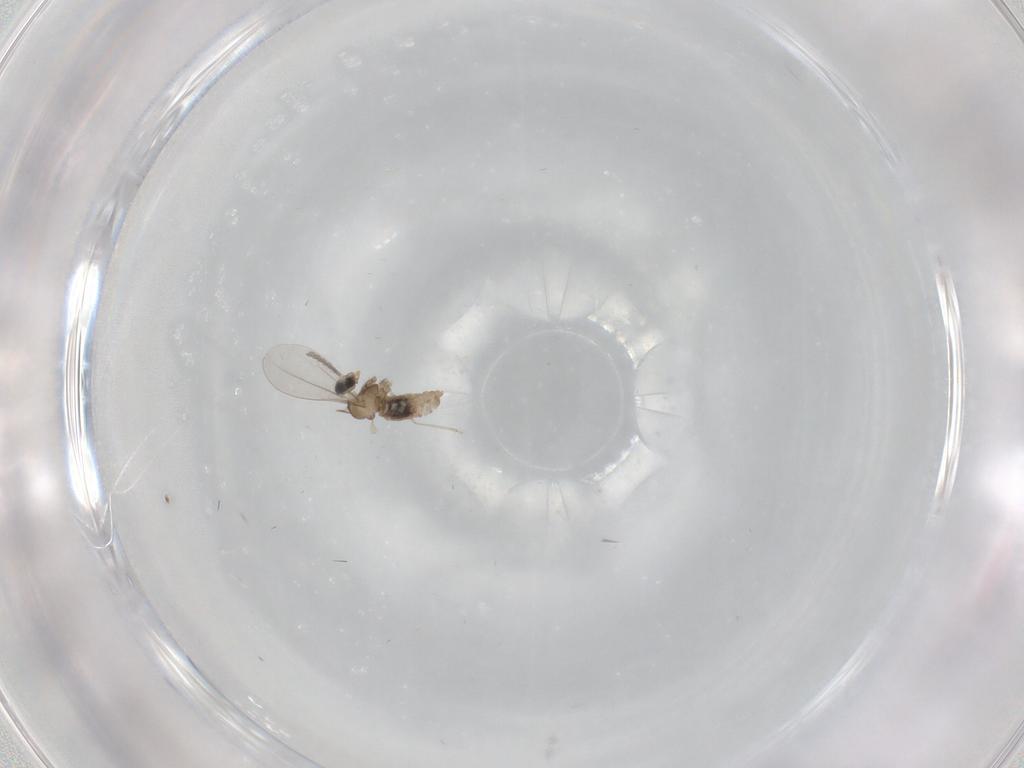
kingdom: Animalia
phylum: Arthropoda
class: Insecta
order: Diptera
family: Cecidomyiidae
